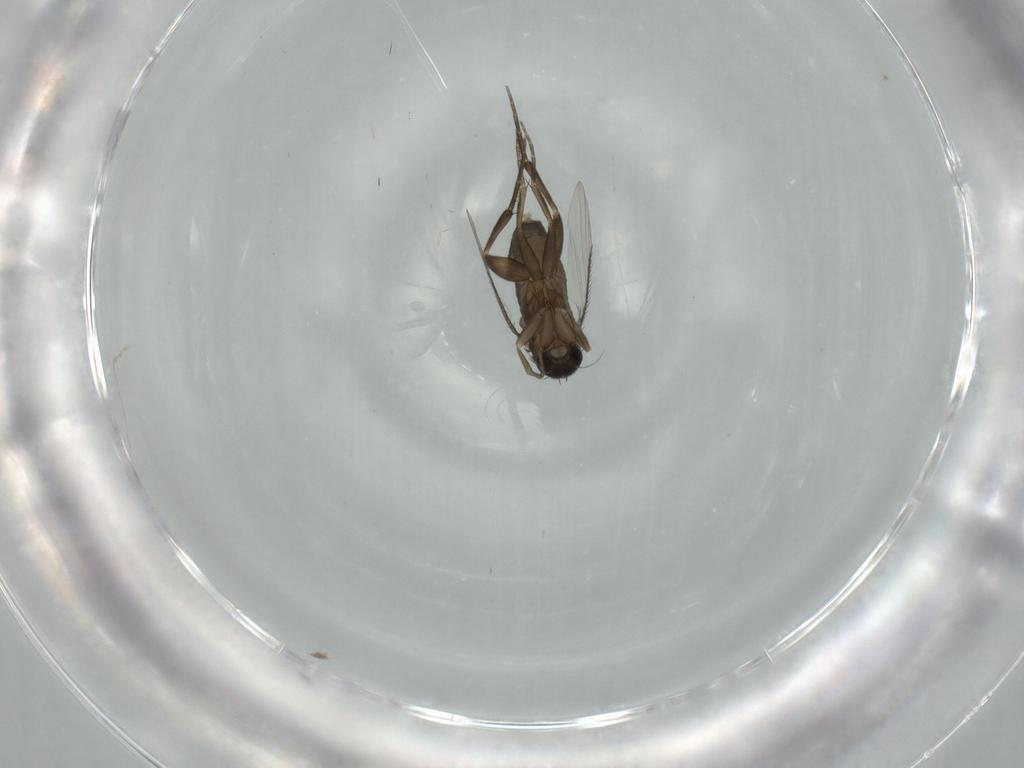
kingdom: Animalia
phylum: Arthropoda
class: Insecta
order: Diptera
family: Phoridae
